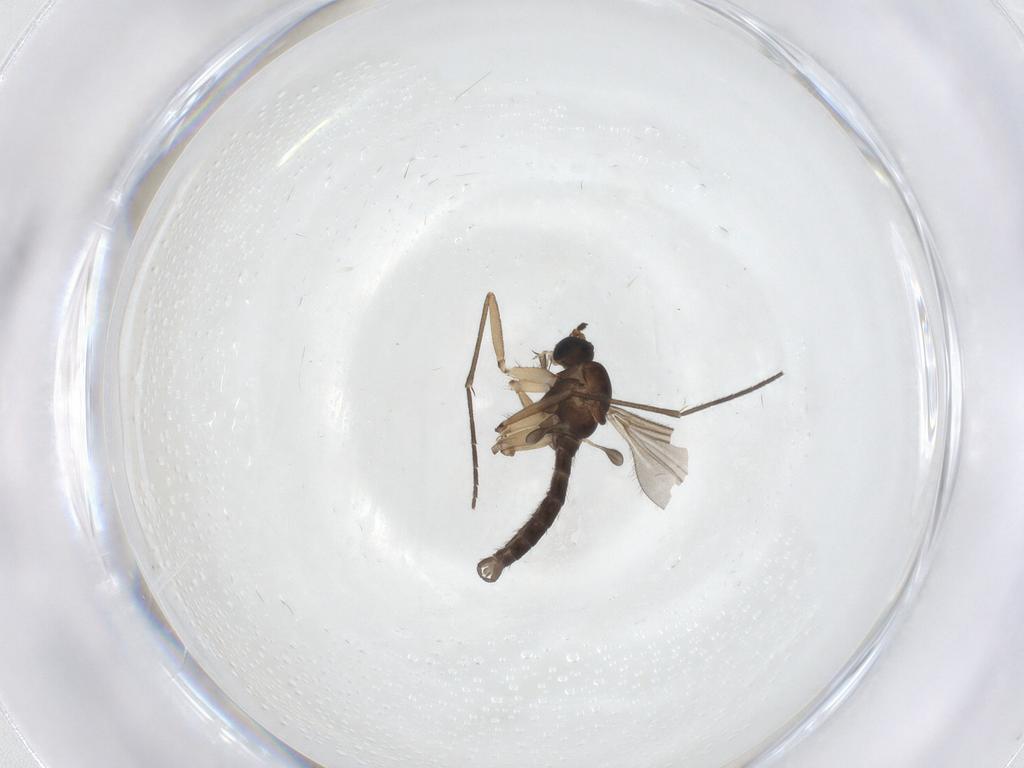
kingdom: Animalia
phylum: Arthropoda
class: Insecta
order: Diptera
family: Sciaridae
